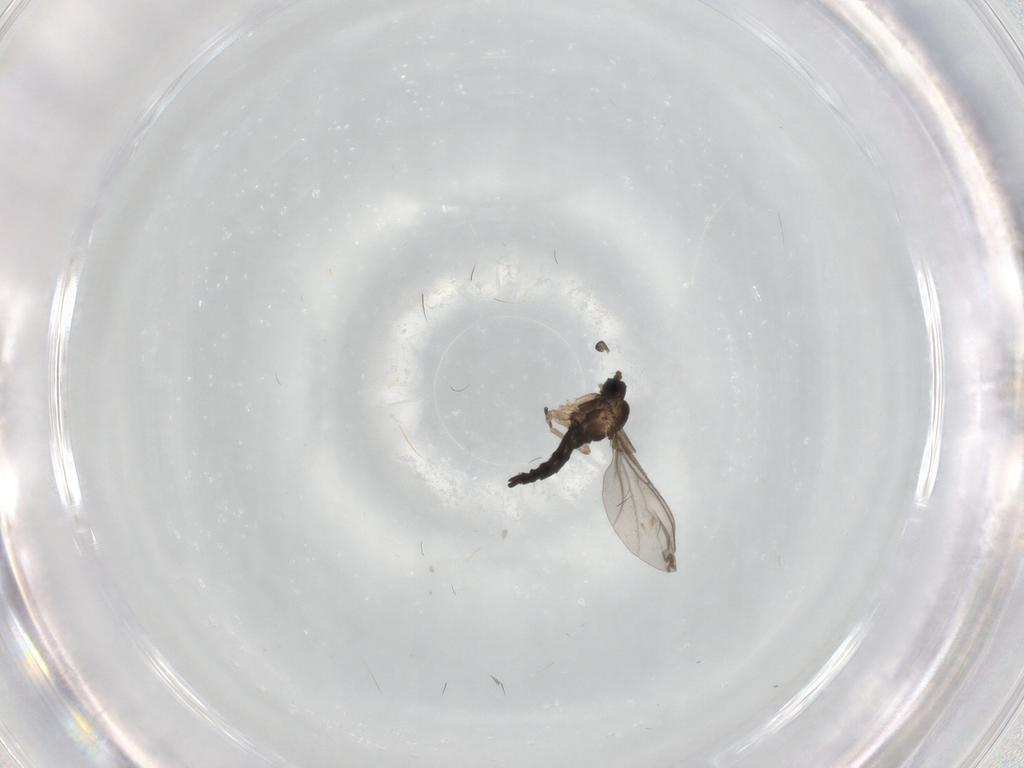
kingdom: Animalia
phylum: Arthropoda
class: Insecta
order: Diptera
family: Sciaridae
